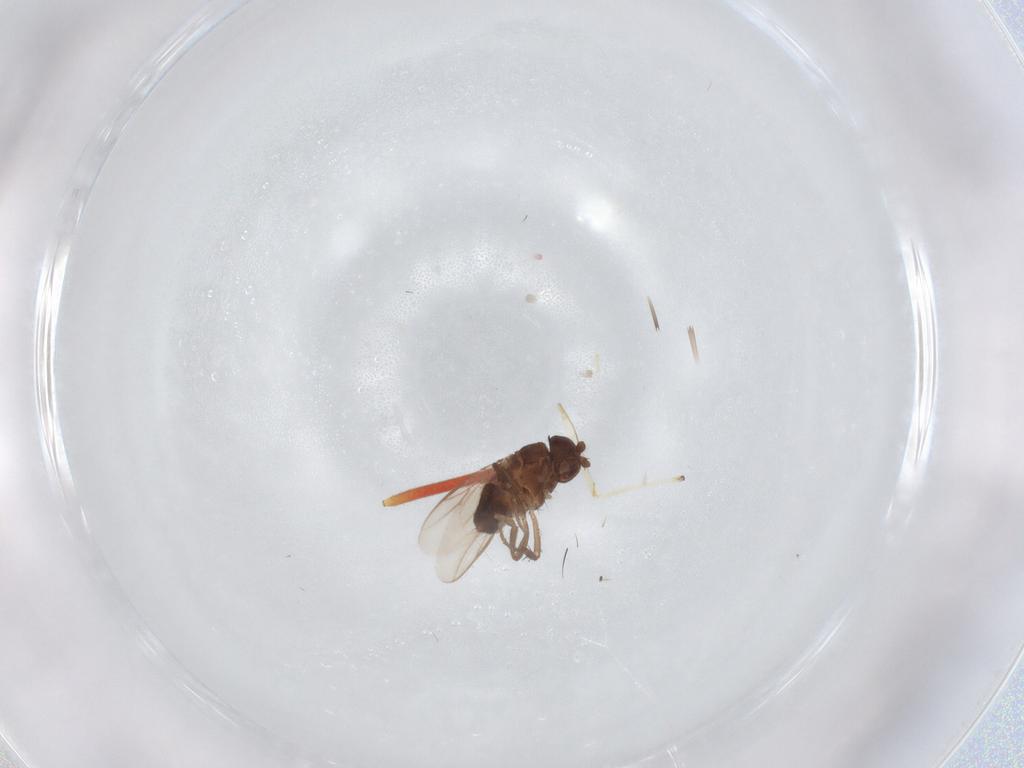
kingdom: Animalia
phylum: Arthropoda
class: Insecta
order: Diptera
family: Sphaeroceridae
